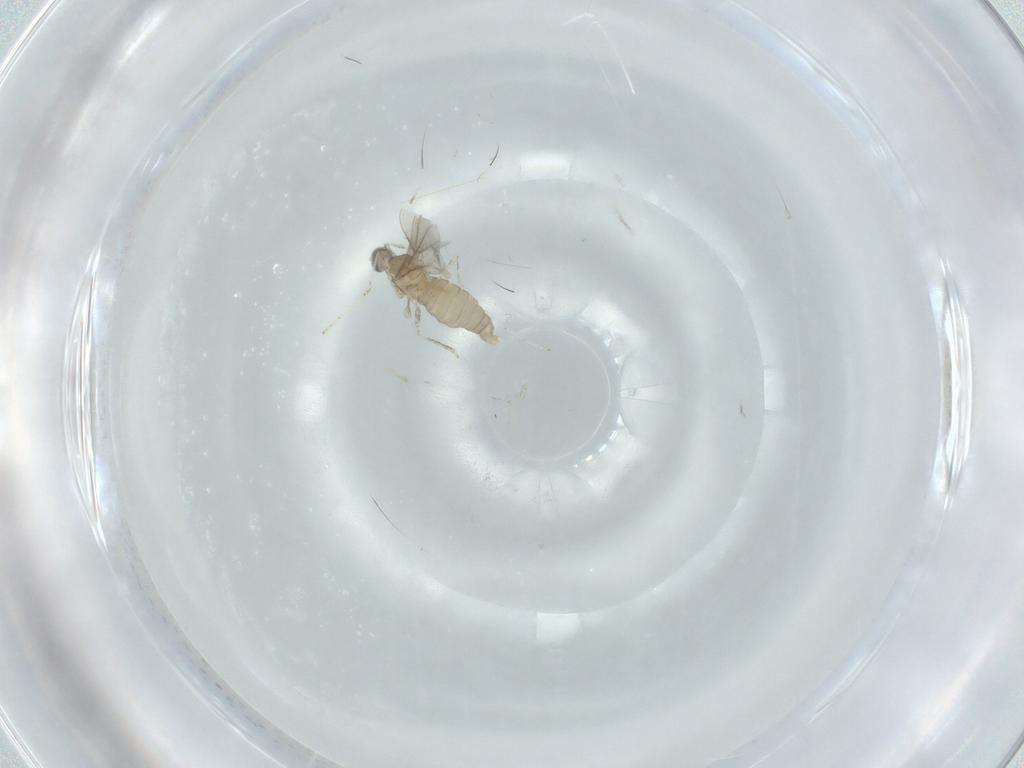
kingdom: Animalia
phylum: Arthropoda
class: Insecta
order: Diptera
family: Cecidomyiidae
